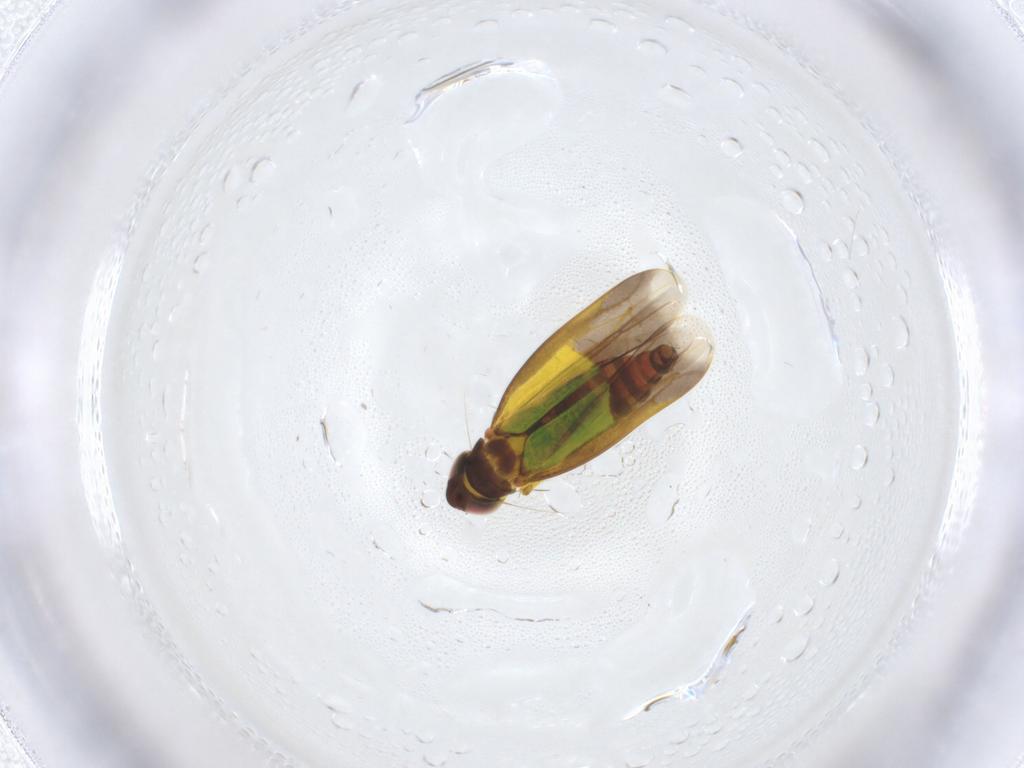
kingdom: Animalia
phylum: Arthropoda
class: Insecta
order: Hemiptera
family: Cicadellidae
